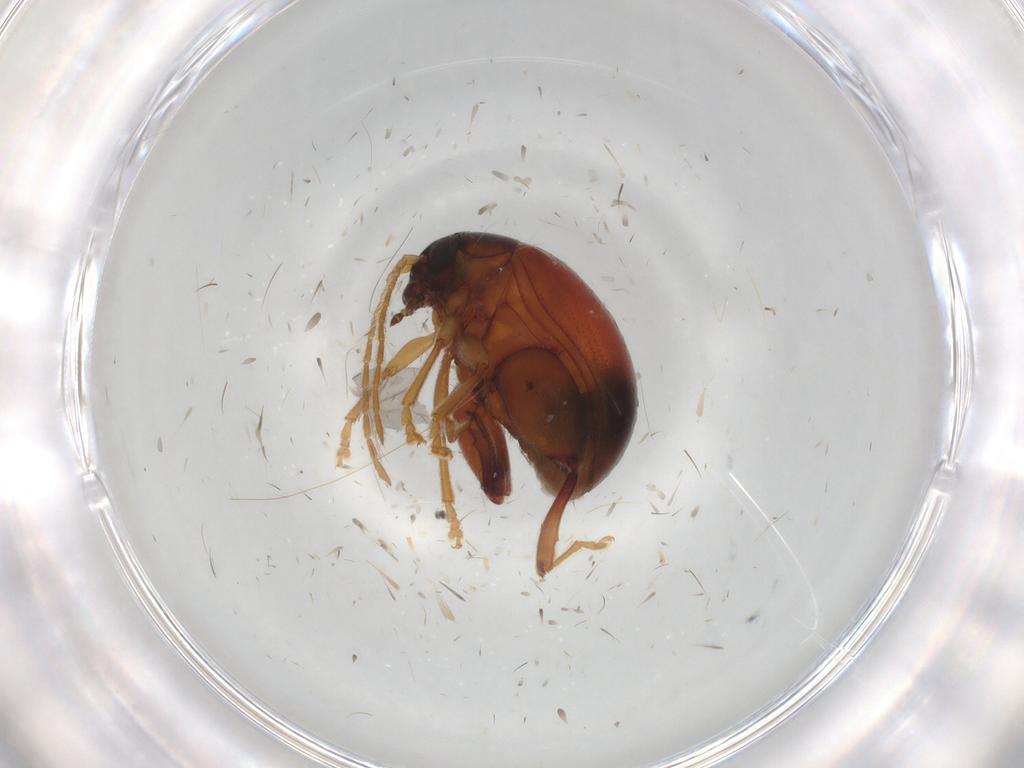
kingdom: Animalia
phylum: Arthropoda
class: Insecta
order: Coleoptera
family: Chrysomelidae
